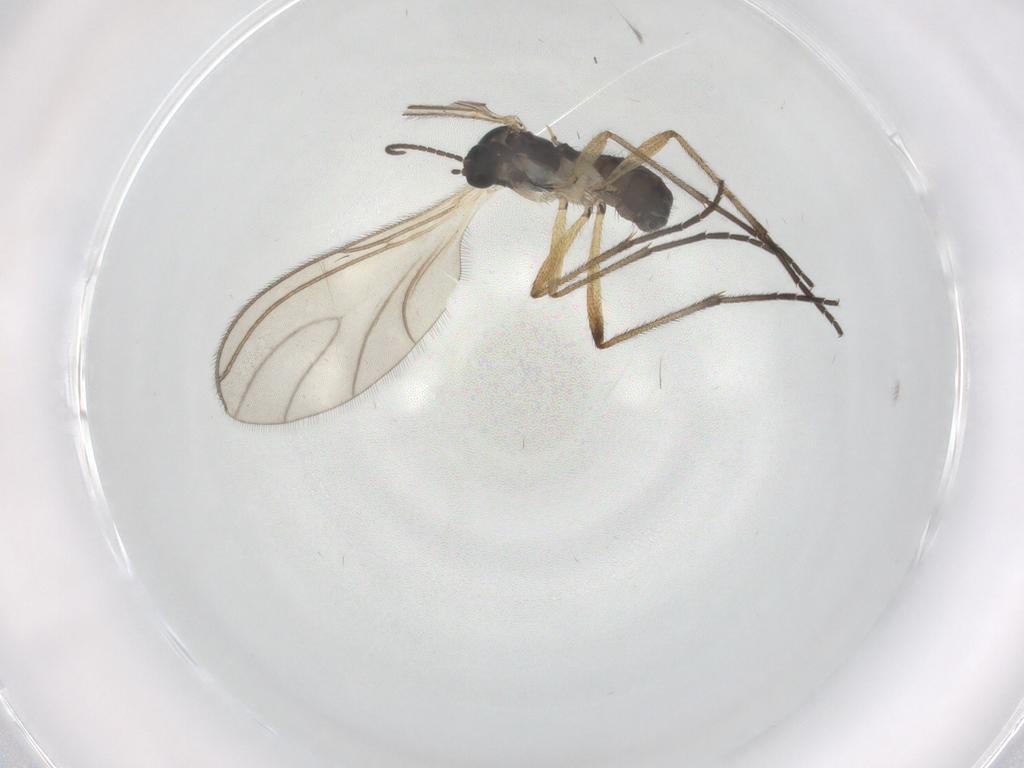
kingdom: Animalia
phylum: Arthropoda
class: Insecta
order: Diptera
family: Sciaridae
